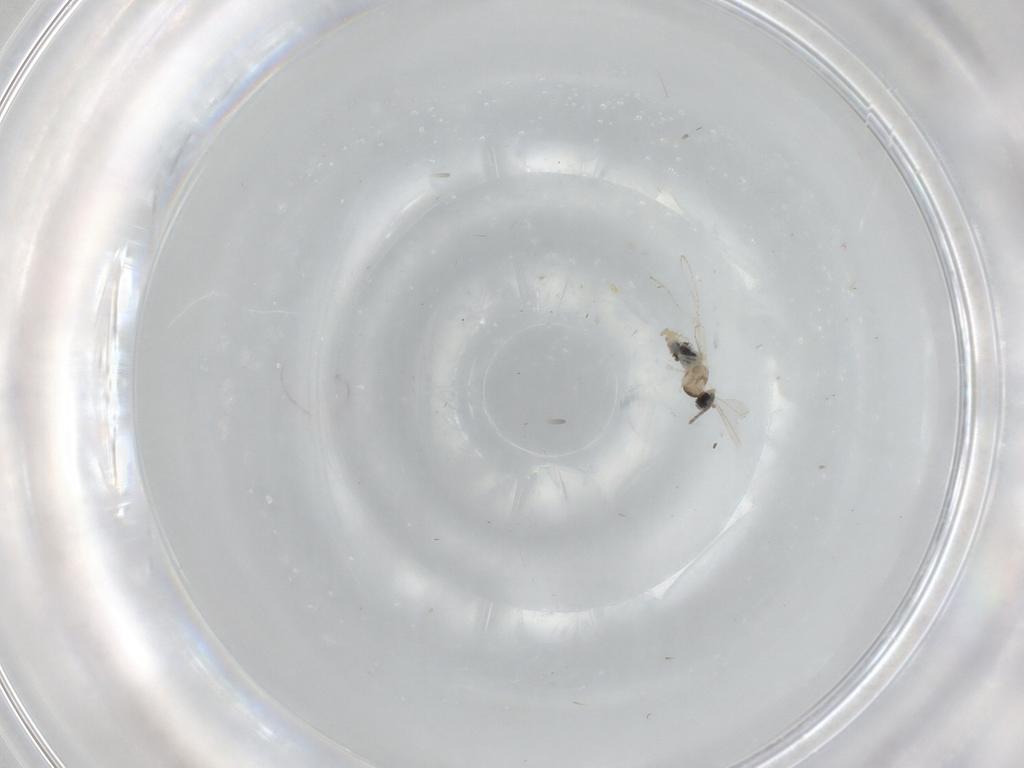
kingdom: Animalia
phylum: Arthropoda
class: Insecta
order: Diptera
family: Cecidomyiidae
